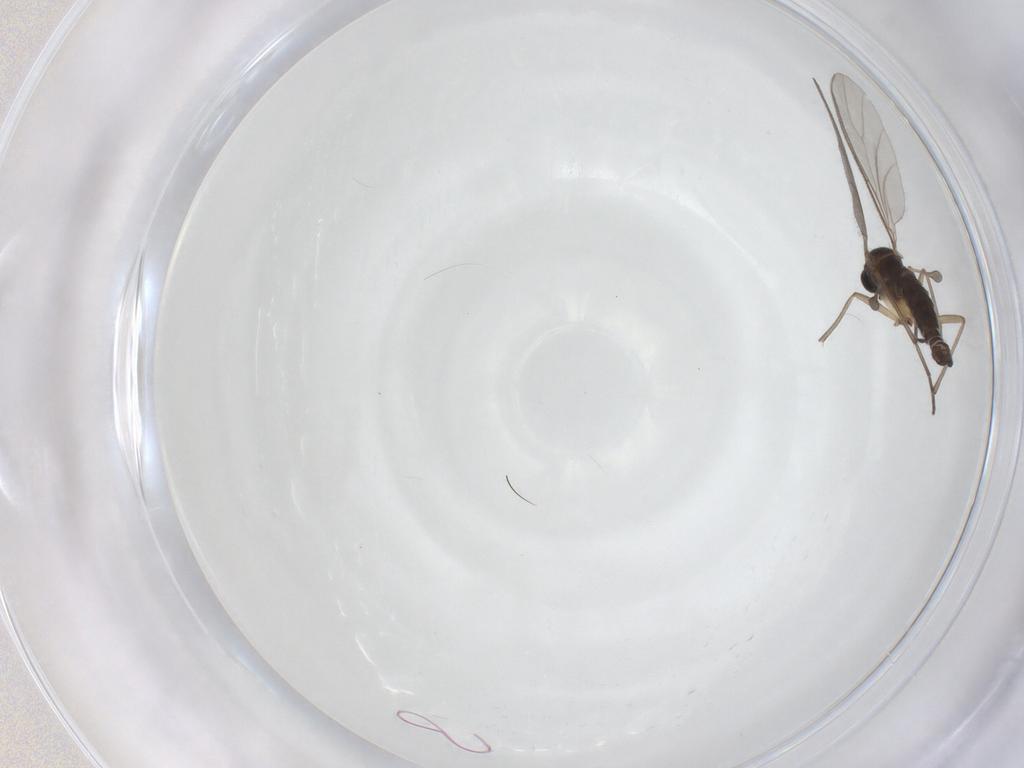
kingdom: Animalia
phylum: Arthropoda
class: Insecta
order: Diptera
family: Sciaridae
